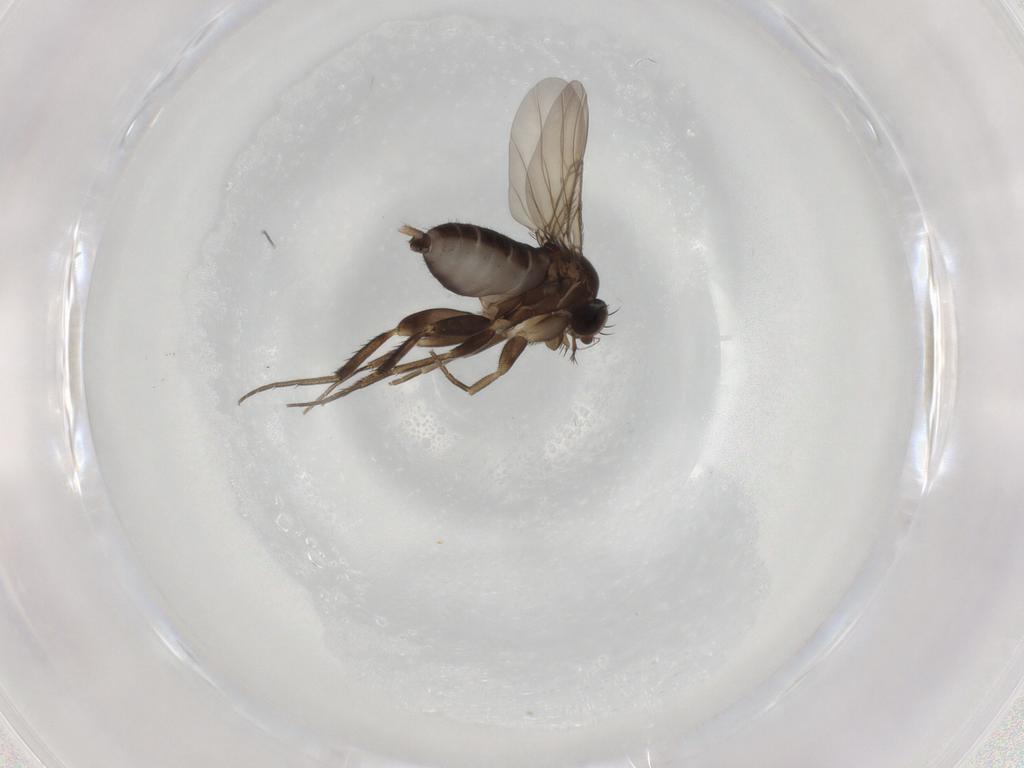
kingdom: Animalia
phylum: Arthropoda
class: Insecta
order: Diptera
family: Phoridae
